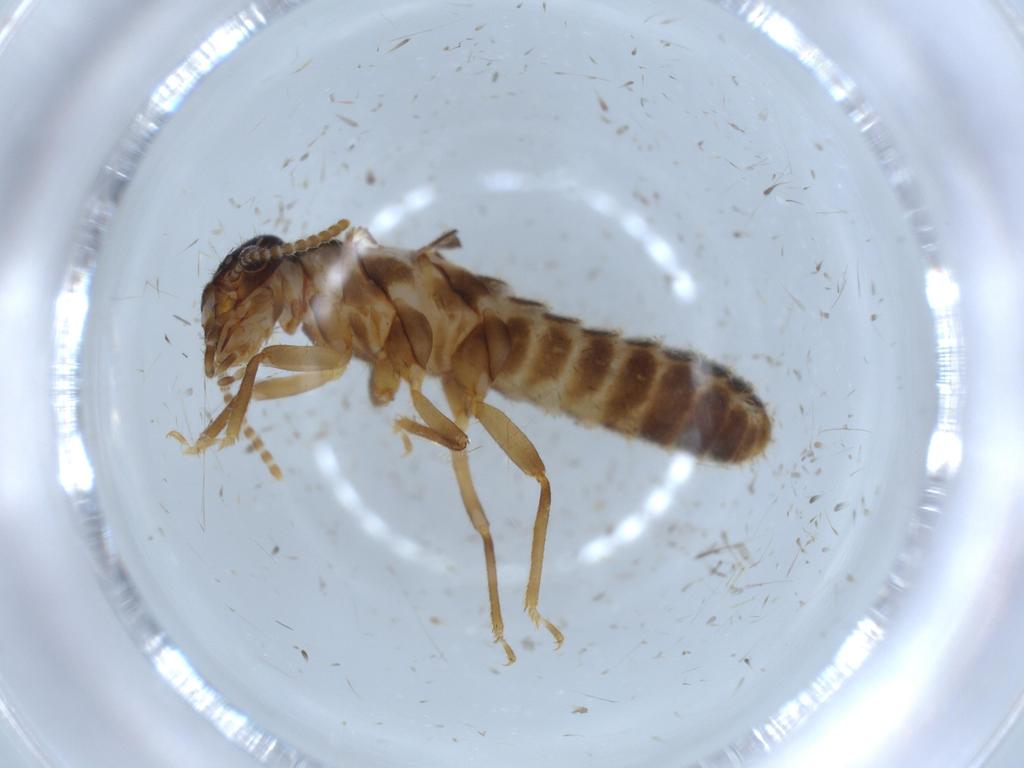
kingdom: Animalia
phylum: Arthropoda
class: Insecta
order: Blattodea
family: Termitidae
